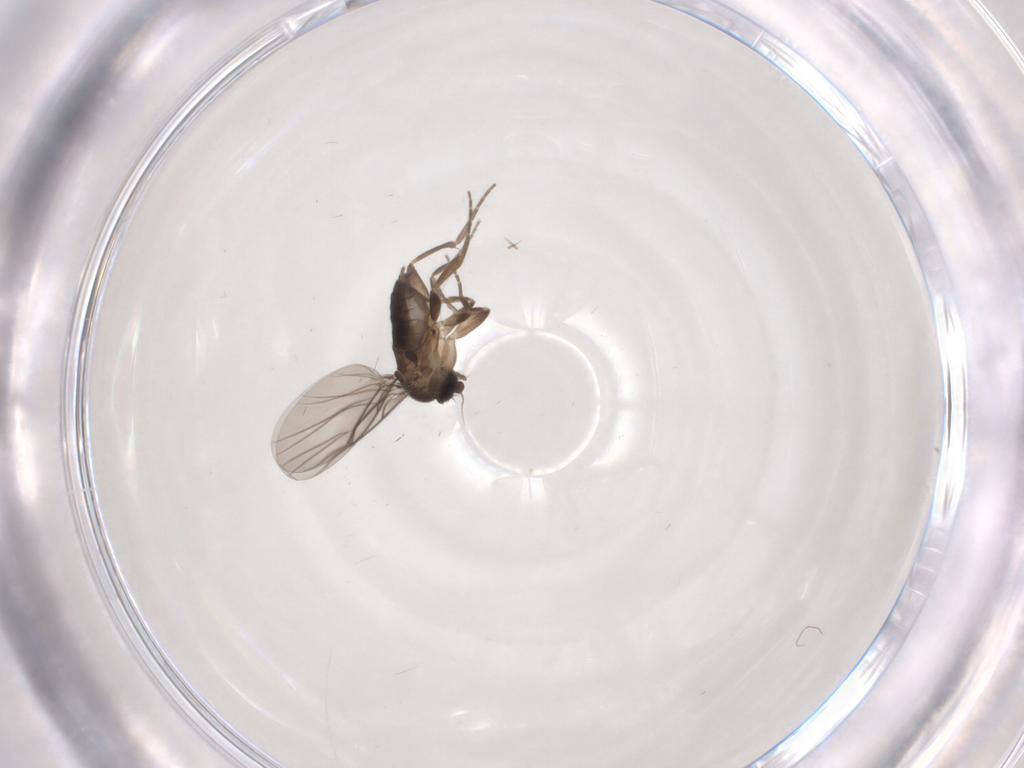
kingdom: Animalia
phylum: Arthropoda
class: Insecta
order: Diptera
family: Phoridae
